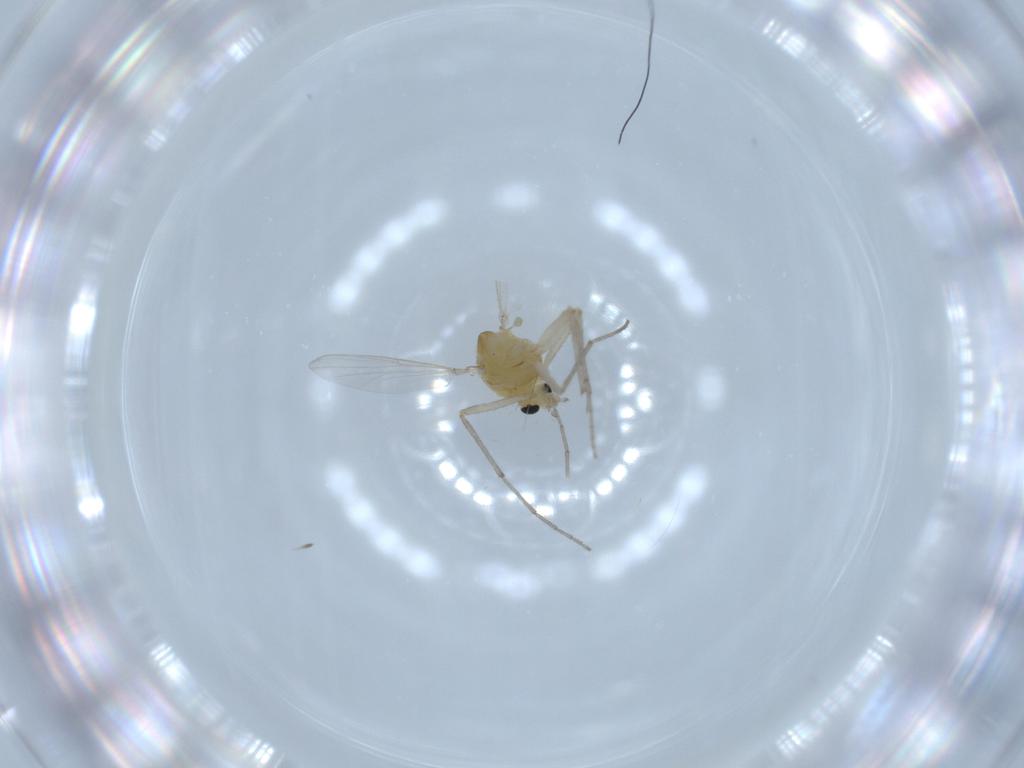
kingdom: Animalia
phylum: Arthropoda
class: Insecta
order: Diptera
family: Chironomidae
